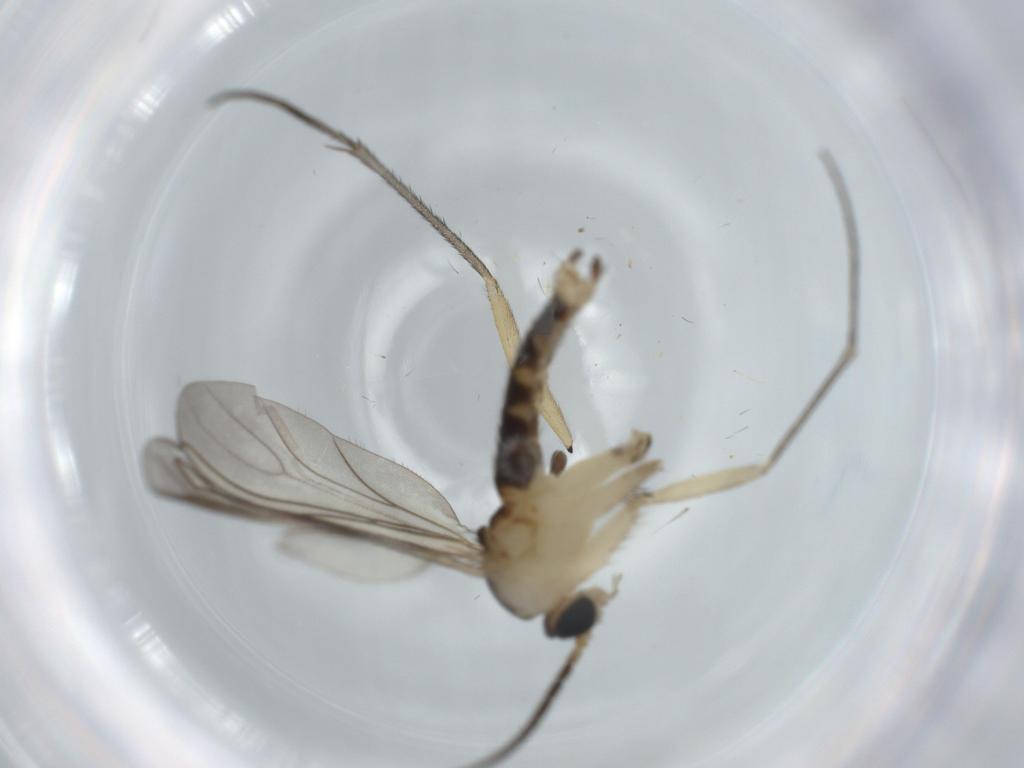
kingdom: Animalia
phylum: Arthropoda
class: Insecta
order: Diptera
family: Sciaridae
